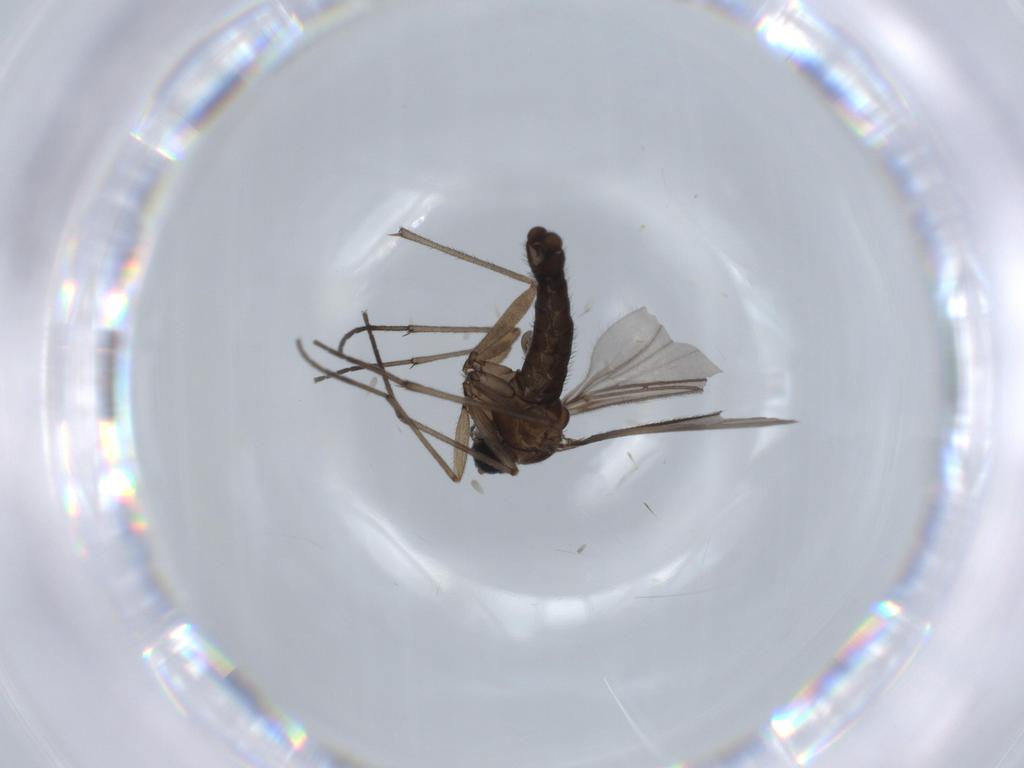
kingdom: Animalia
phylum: Arthropoda
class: Insecta
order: Diptera
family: Sciaridae
